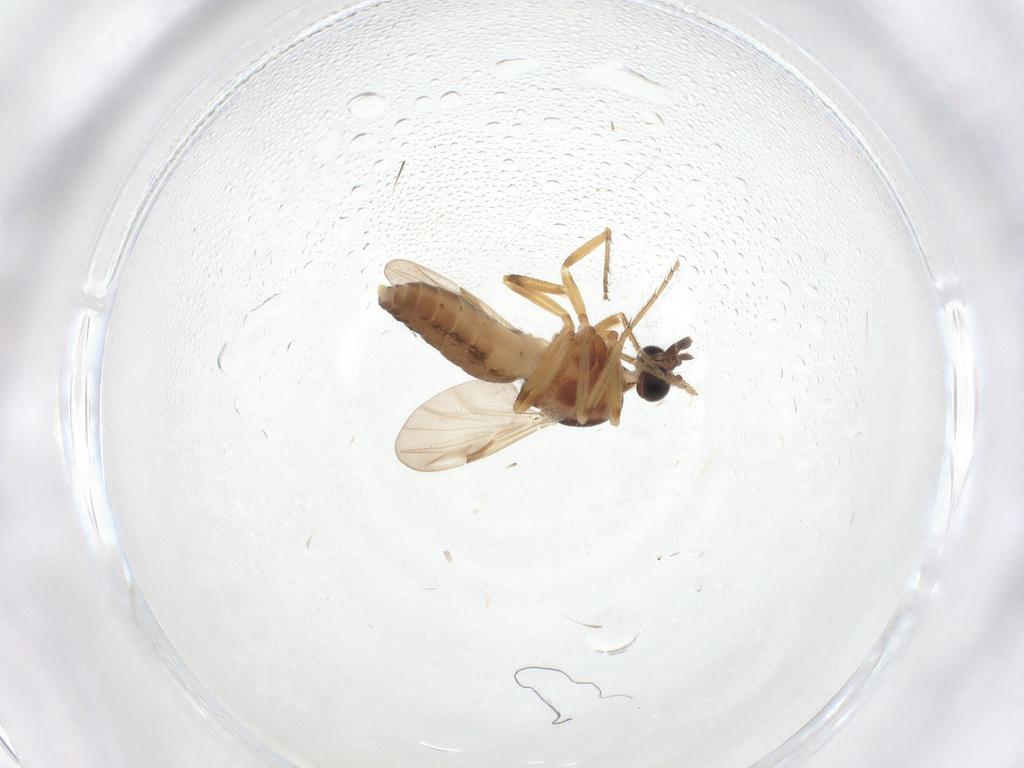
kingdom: Animalia
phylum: Arthropoda
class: Insecta
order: Diptera
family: Ceratopogonidae
